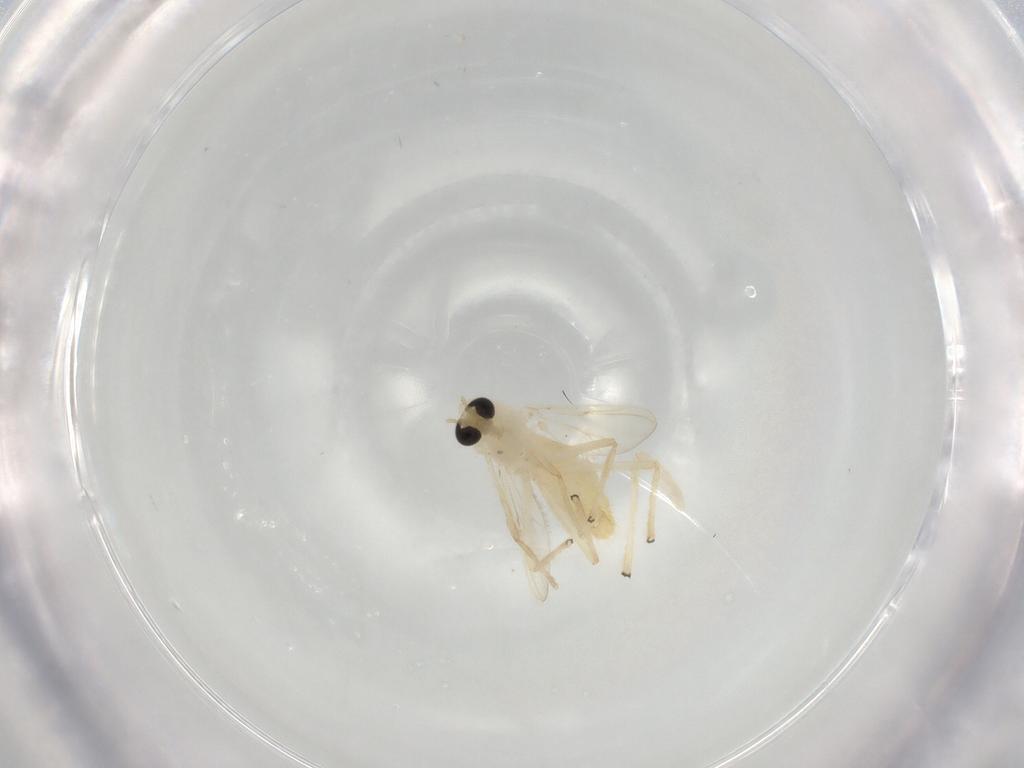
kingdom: Animalia
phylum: Arthropoda
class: Insecta
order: Diptera
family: Chironomidae
